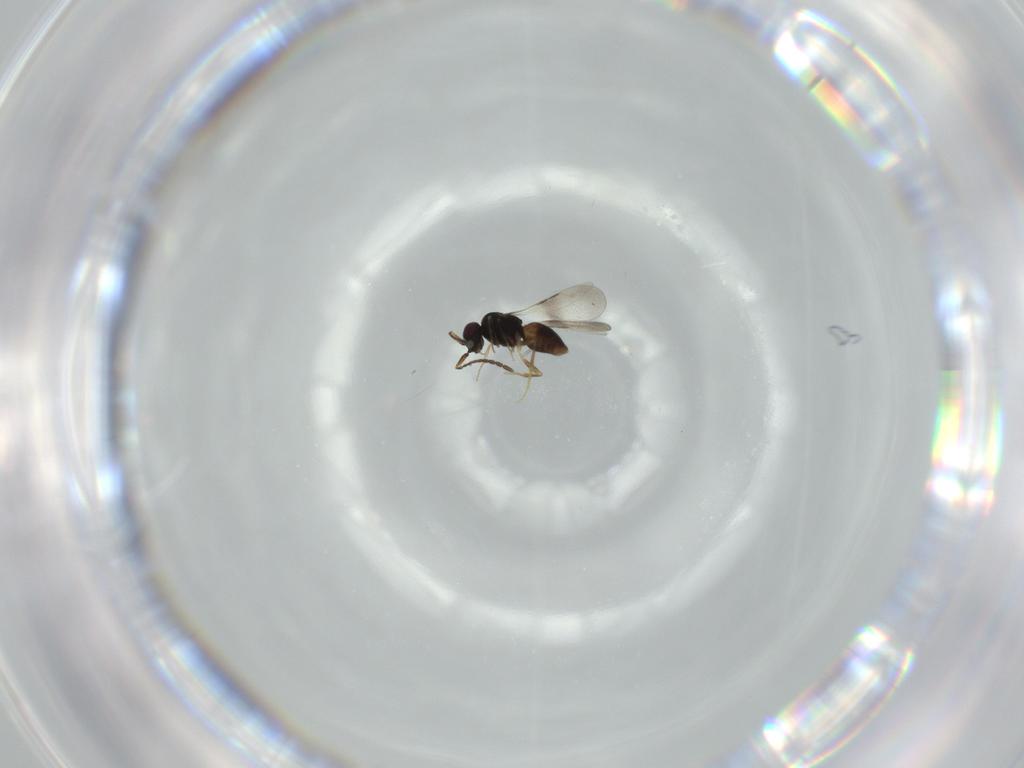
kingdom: Animalia
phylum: Arthropoda
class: Insecta
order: Hymenoptera
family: Ceraphronidae
